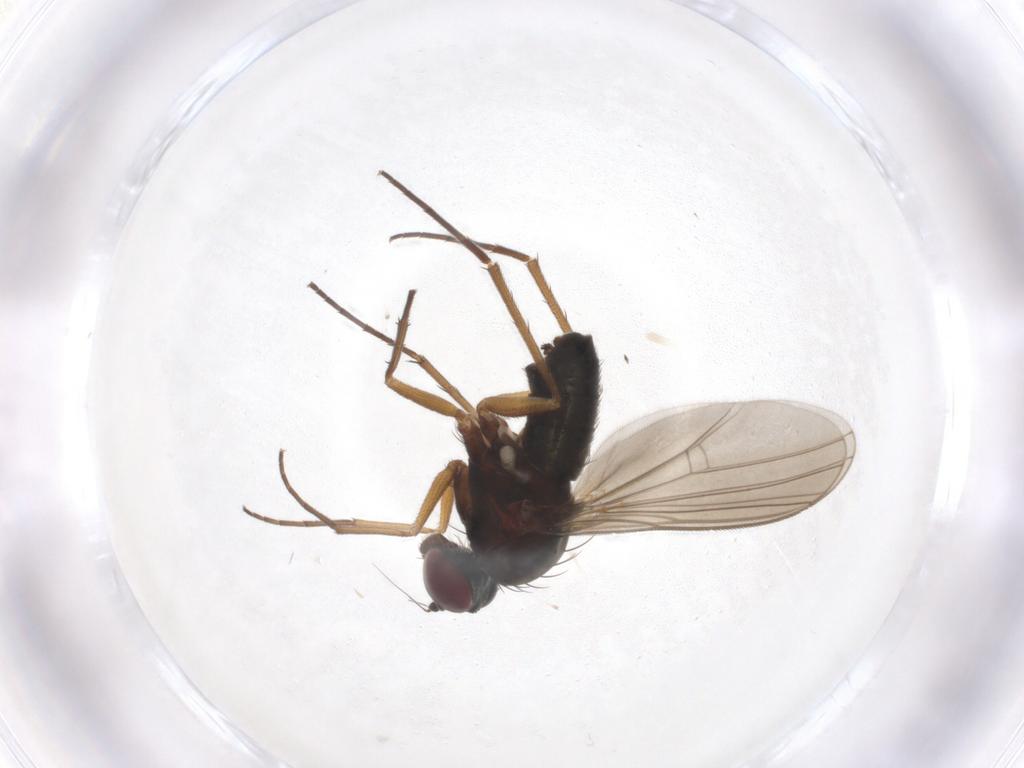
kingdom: Animalia
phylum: Arthropoda
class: Insecta
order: Diptera
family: Dolichopodidae
